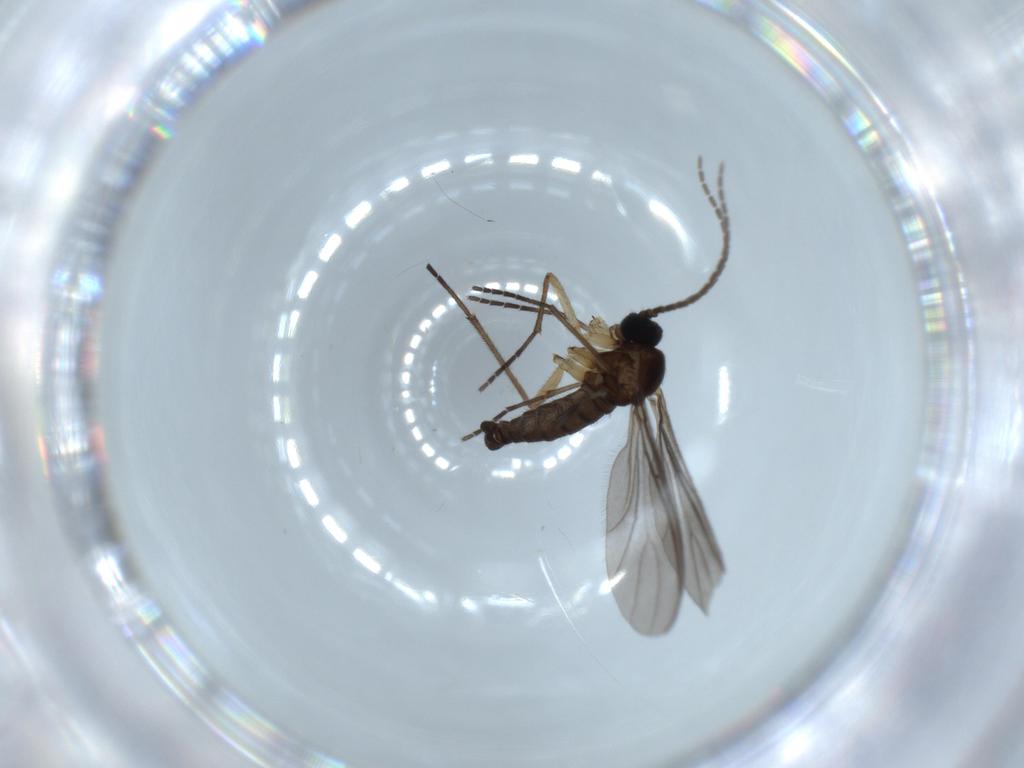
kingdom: Animalia
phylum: Arthropoda
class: Insecta
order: Diptera
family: Sciaridae
